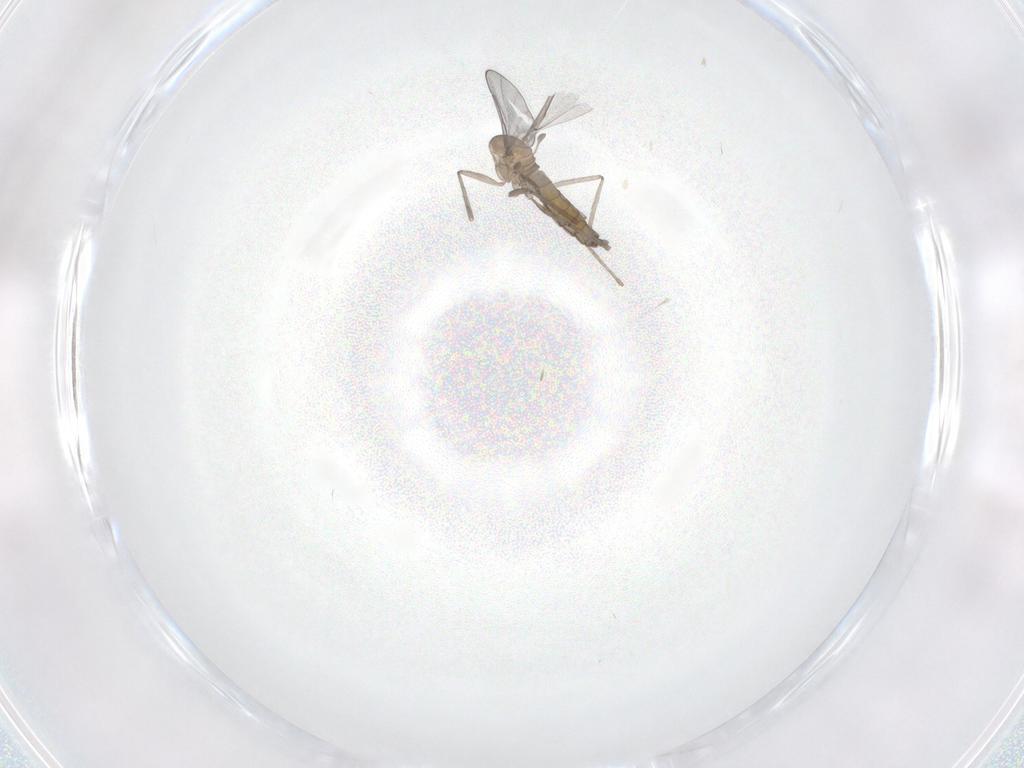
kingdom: Animalia
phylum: Arthropoda
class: Insecta
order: Diptera
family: Cecidomyiidae
